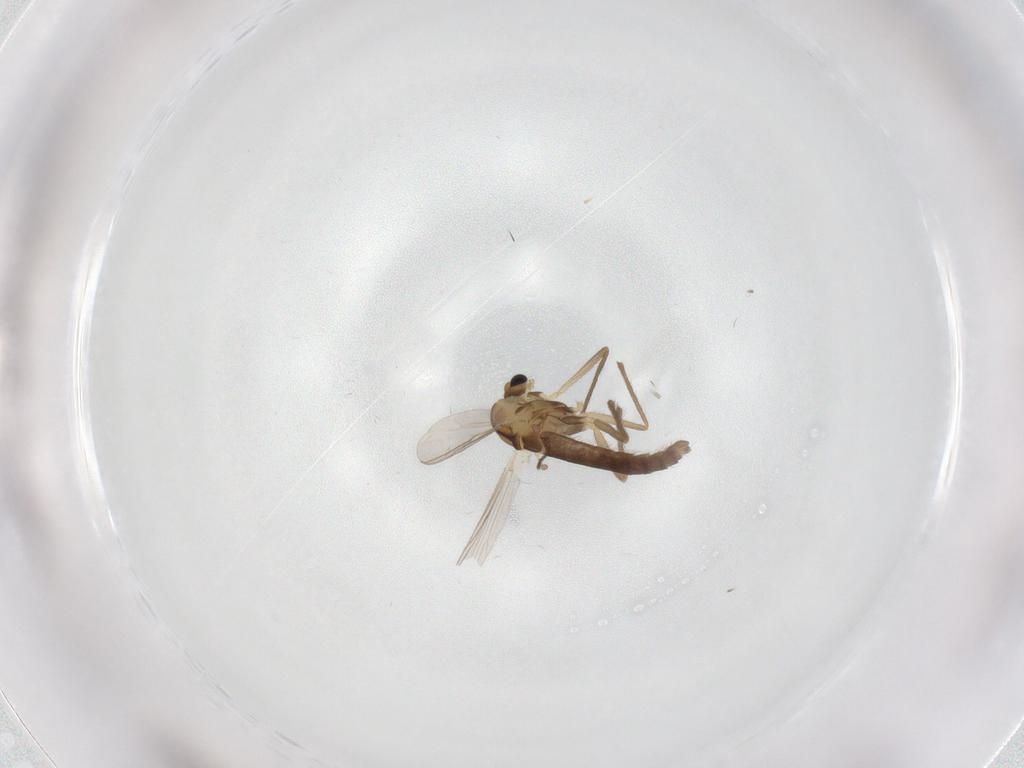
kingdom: Animalia
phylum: Arthropoda
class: Insecta
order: Diptera
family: Chironomidae
